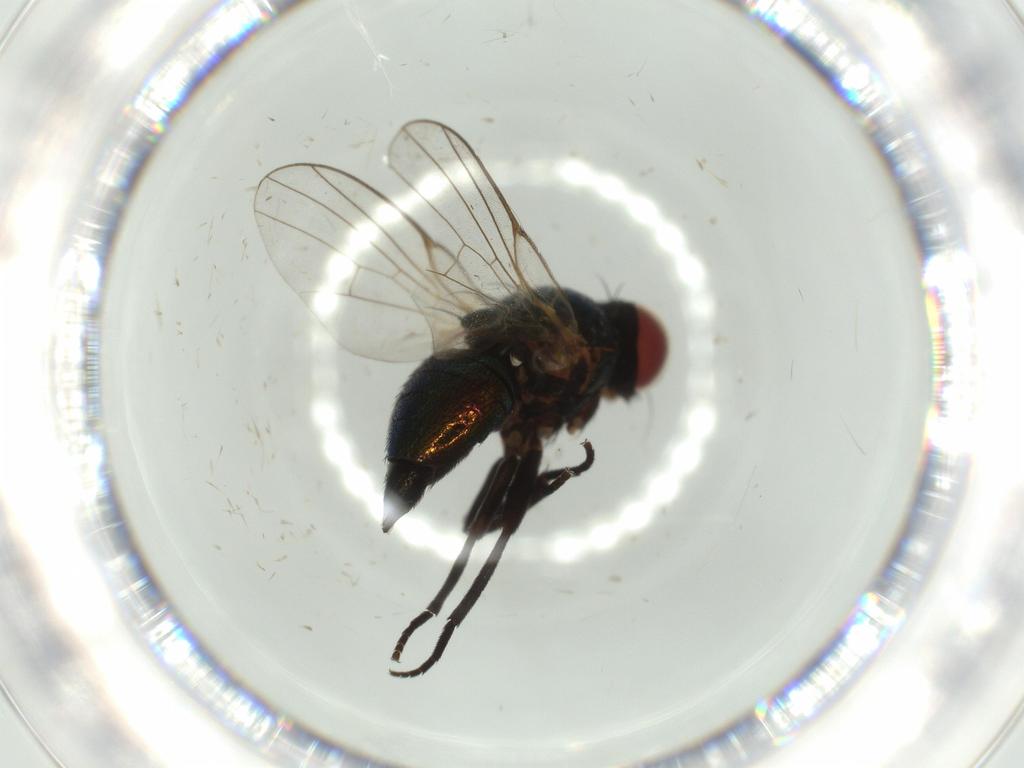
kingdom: Animalia
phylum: Arthropoda
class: Insecta
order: Diptera
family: Agromyzidae
